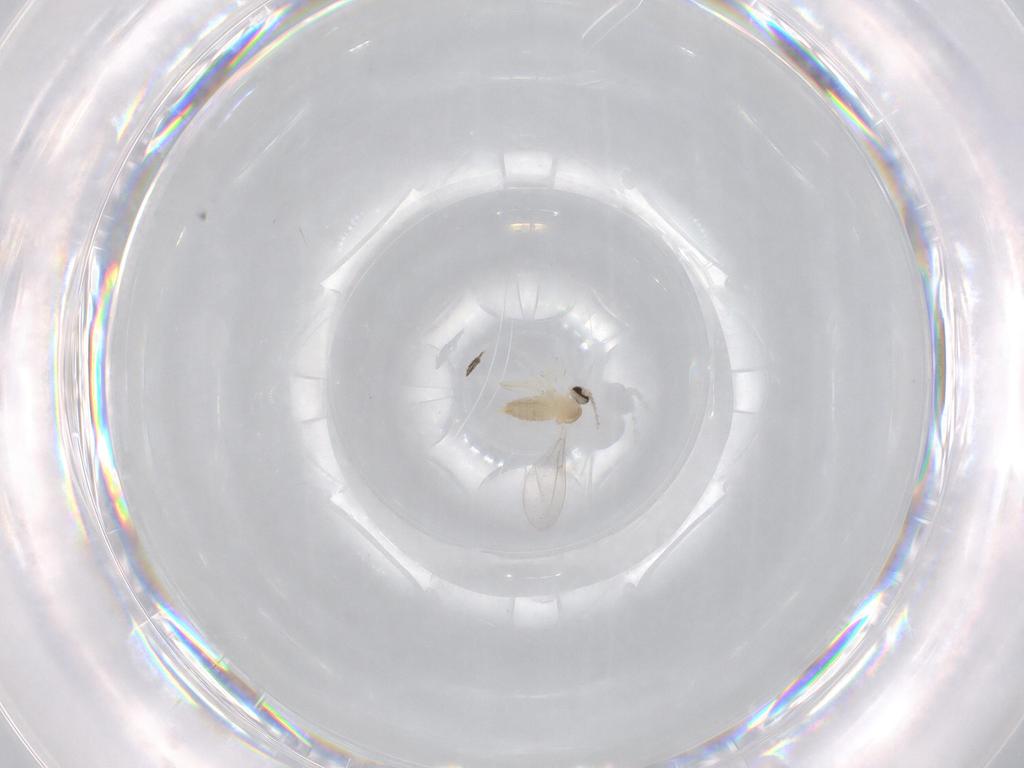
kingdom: Animalia
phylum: Arthropoda
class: Insecta
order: Diptera
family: Cecidomyiidae
